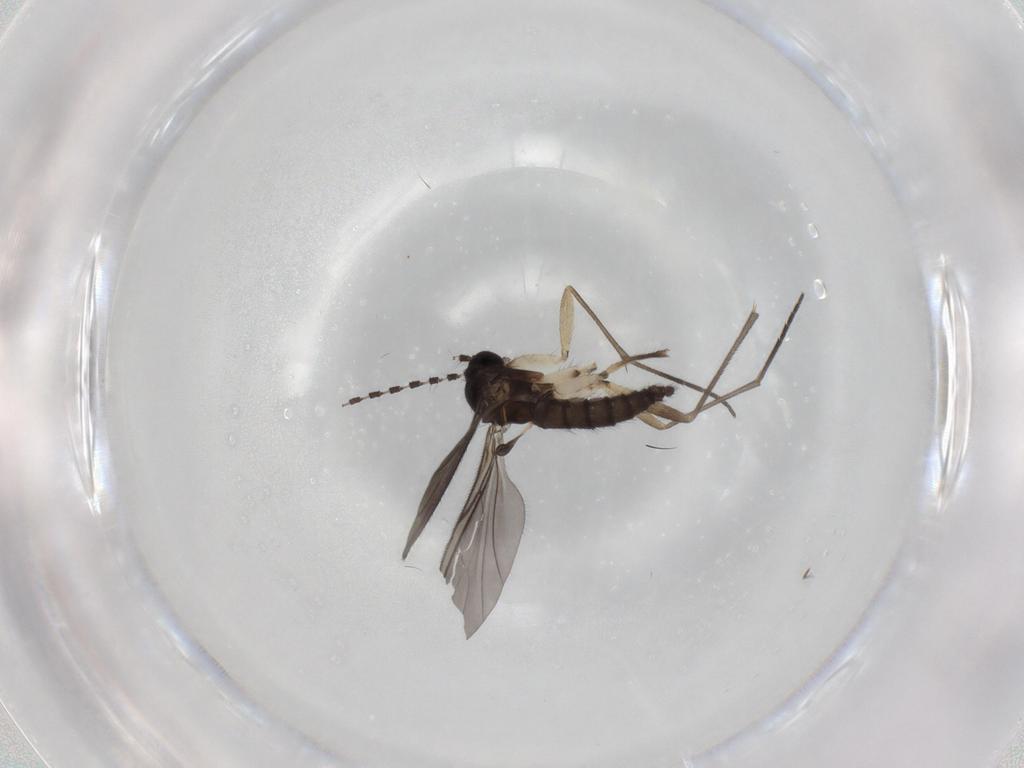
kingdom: Animalia
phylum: Arthropoda
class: Insecta
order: Diptera
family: Sciaridae
